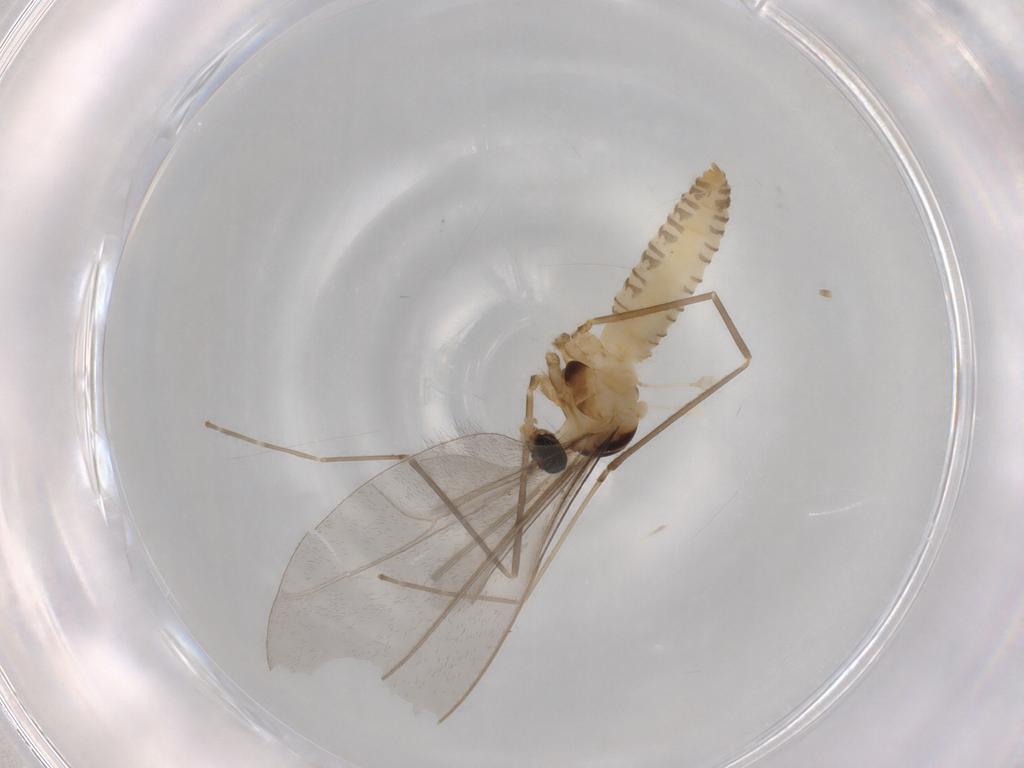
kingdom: Animalia
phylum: Arthropoda
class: Insecta
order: Diptera
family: Cecidomyiidae
